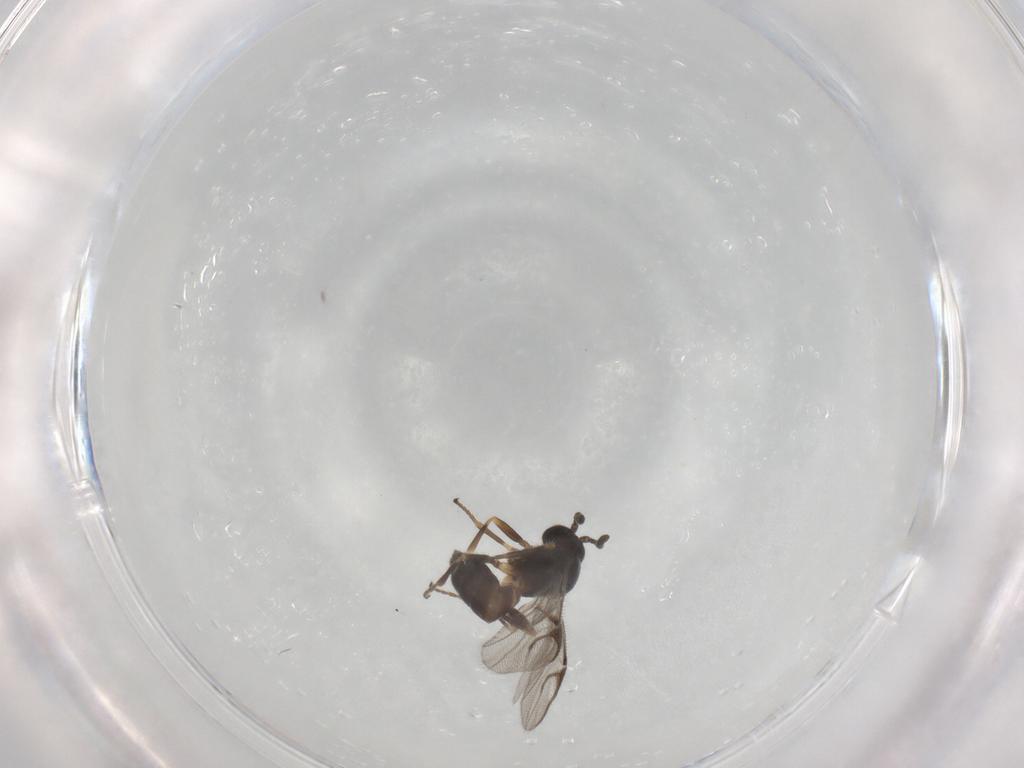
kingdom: Animalia
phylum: Arthropoda
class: Insecta
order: Hymenoptera
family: Braconidae
